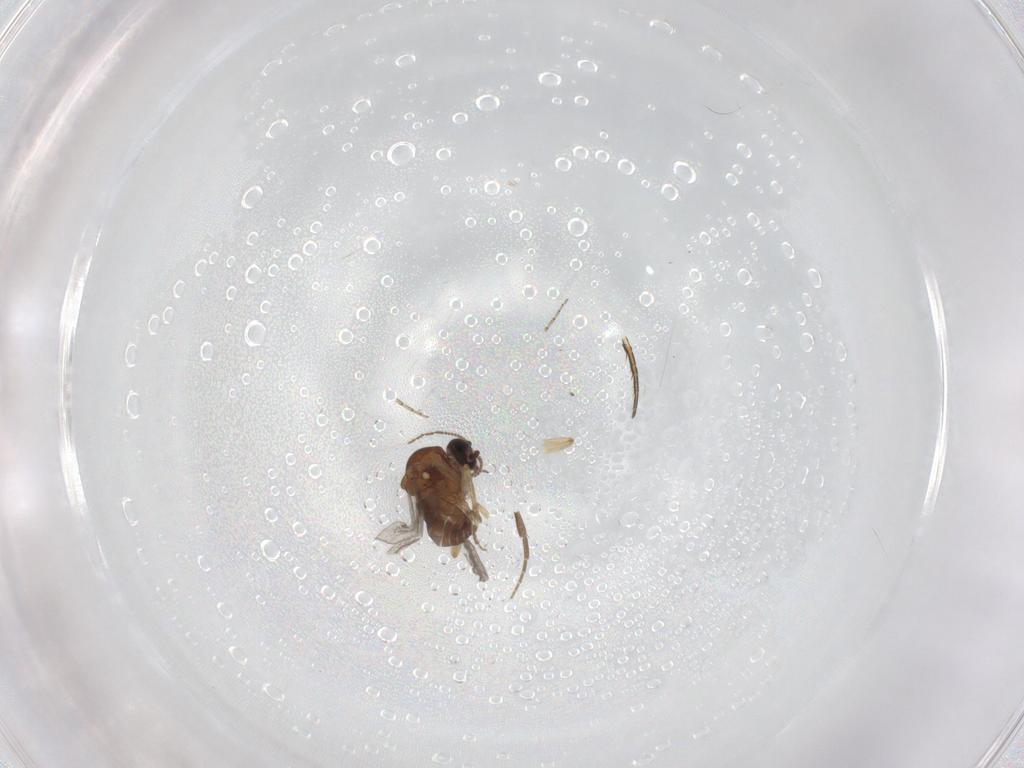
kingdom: Animalia
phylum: Arthropoda
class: Insecta
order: Diptera
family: Phoridae
